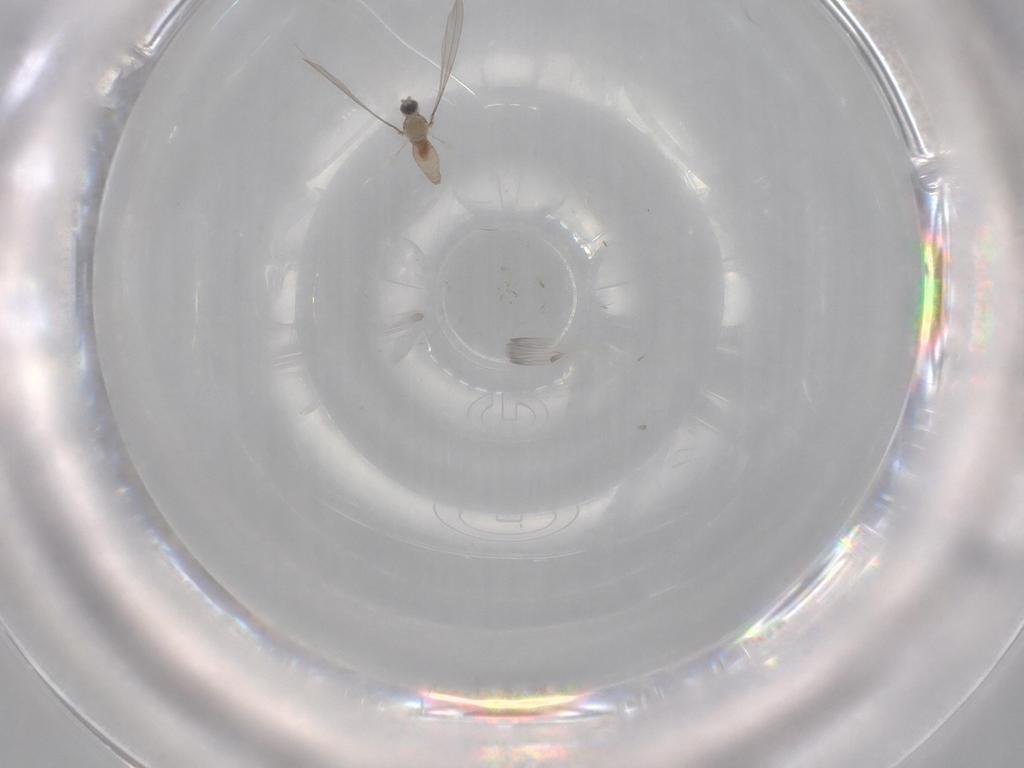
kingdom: Animalia
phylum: Arthropoda
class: Insecta
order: Diptera
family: Cecidomyiidae
